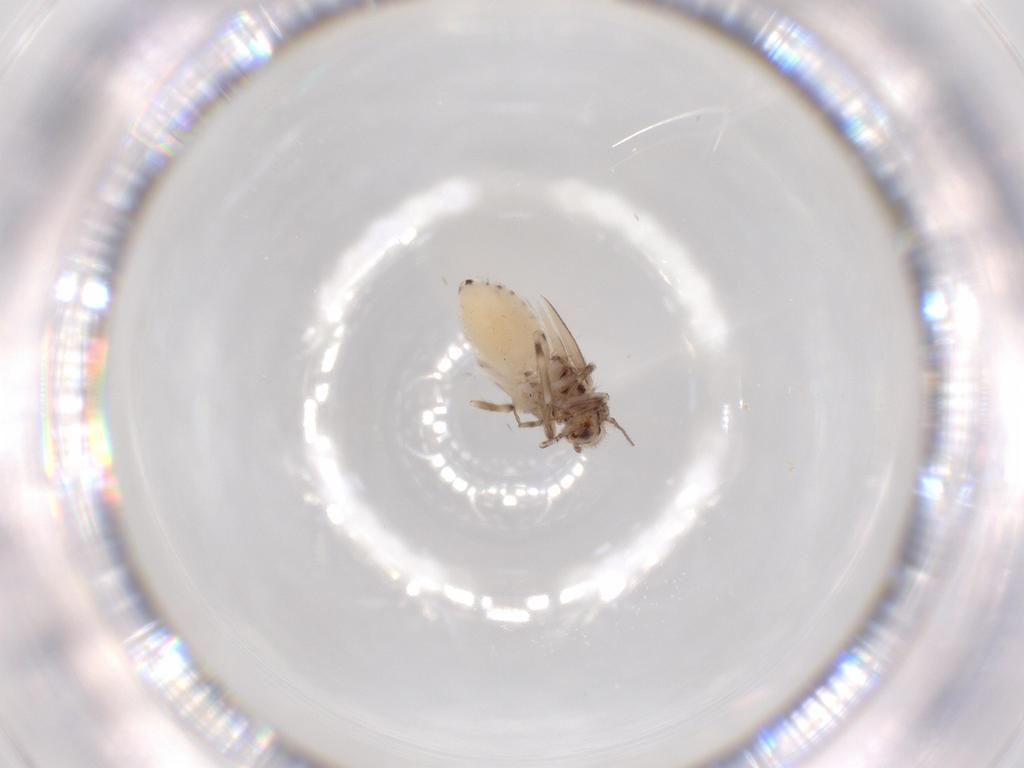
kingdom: Animalia
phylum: Arthropoda
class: Insecta
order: Psocodea
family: Lepidopsocidae
